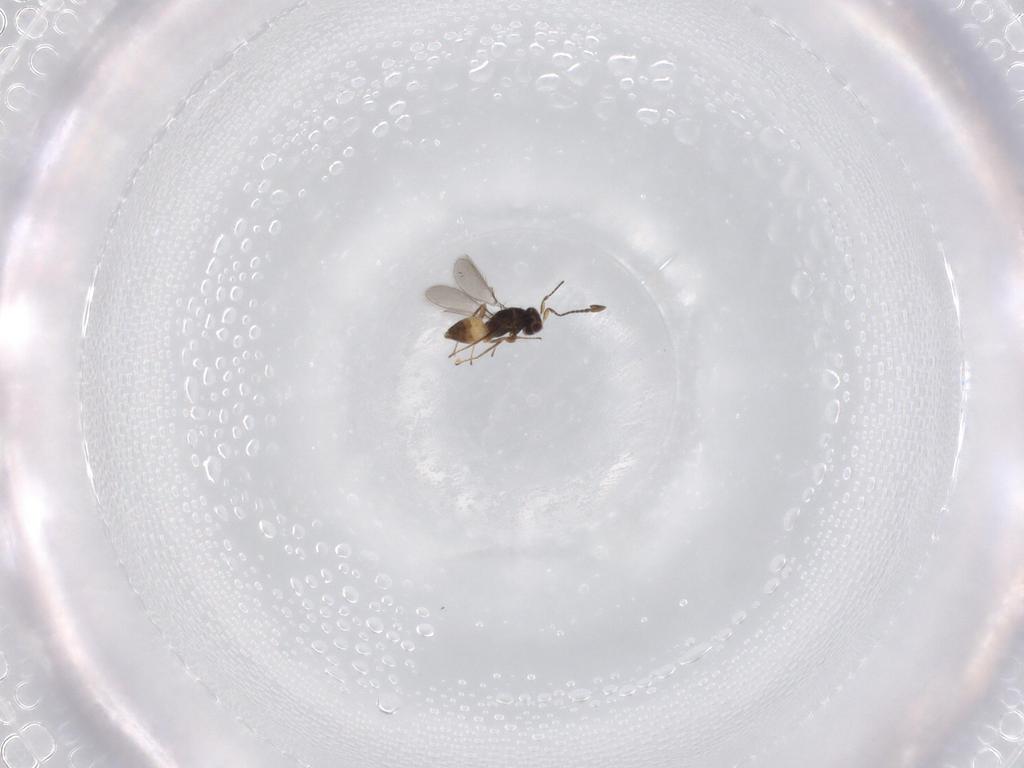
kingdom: Animalia
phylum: Arthropoda
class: Insecta
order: Hymenoptera
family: Mymaridae
